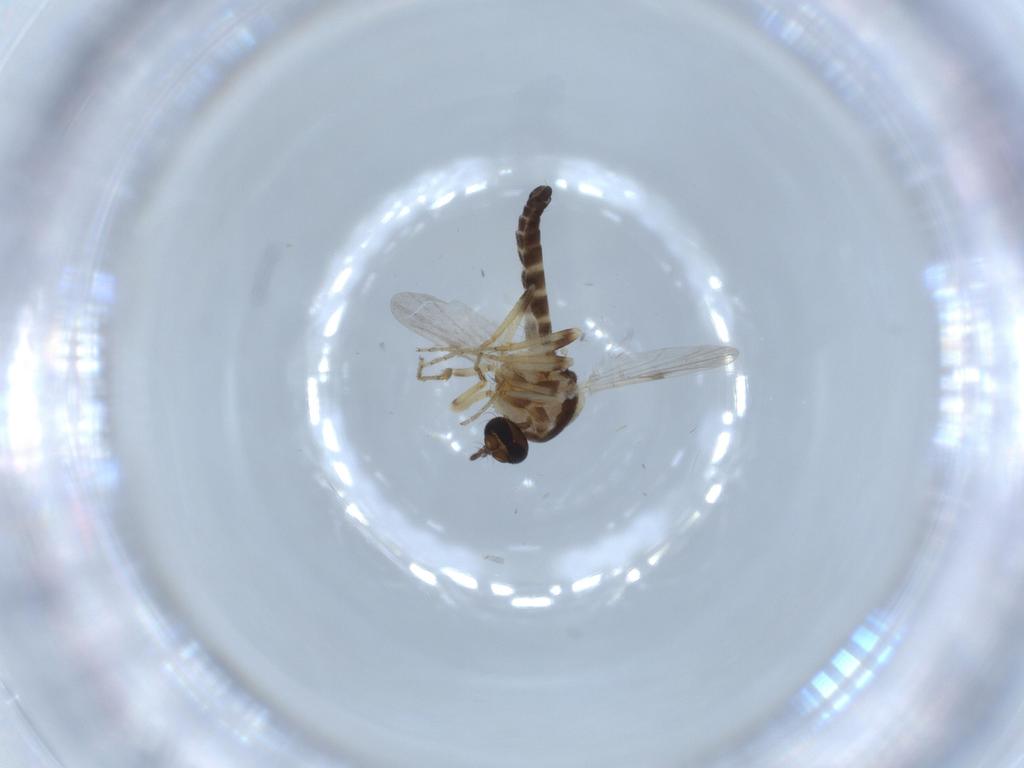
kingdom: Animalia
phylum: Arthropoda
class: Insecta
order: Diptera
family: Ceratopogonidae
